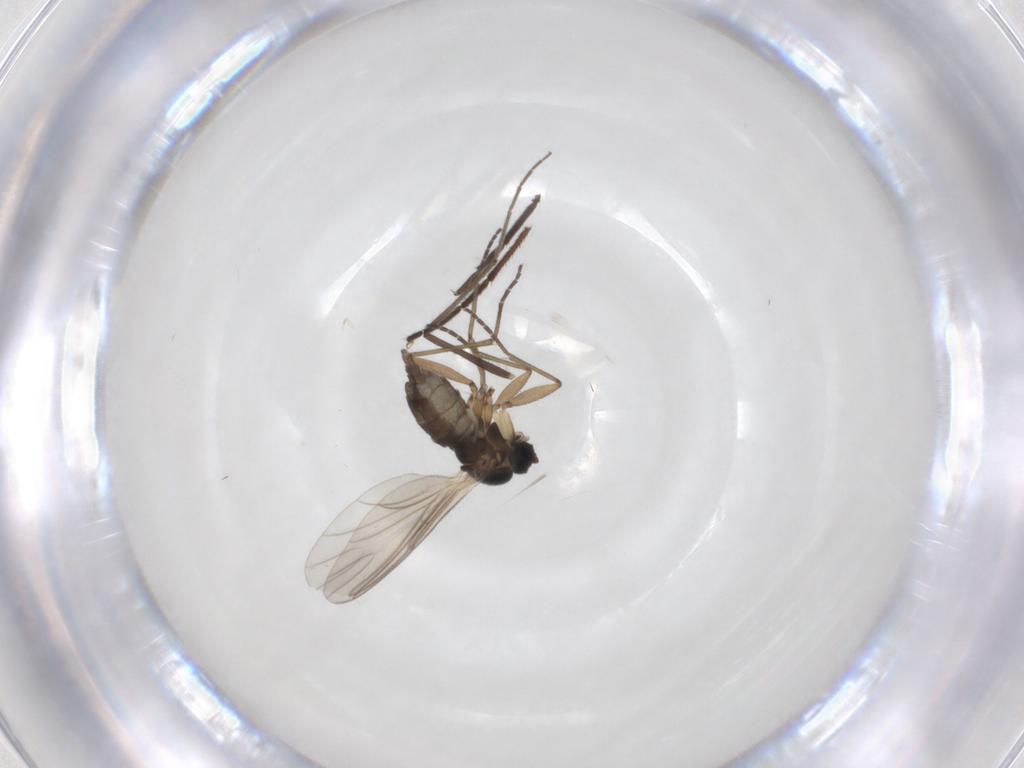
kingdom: Animalia
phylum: Arthropoda
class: Insecta
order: Diptera
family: Mycetophilidae
